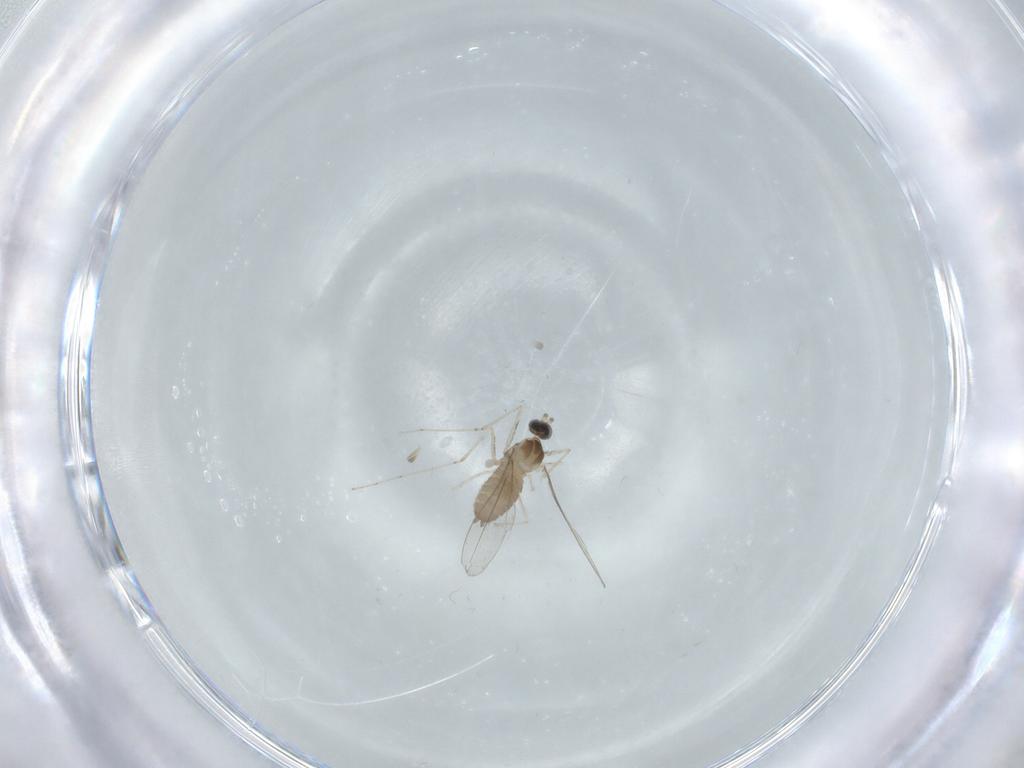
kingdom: Animalia
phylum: Arthropoda
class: Insecta
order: Diptera
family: Cecidomyiidae
